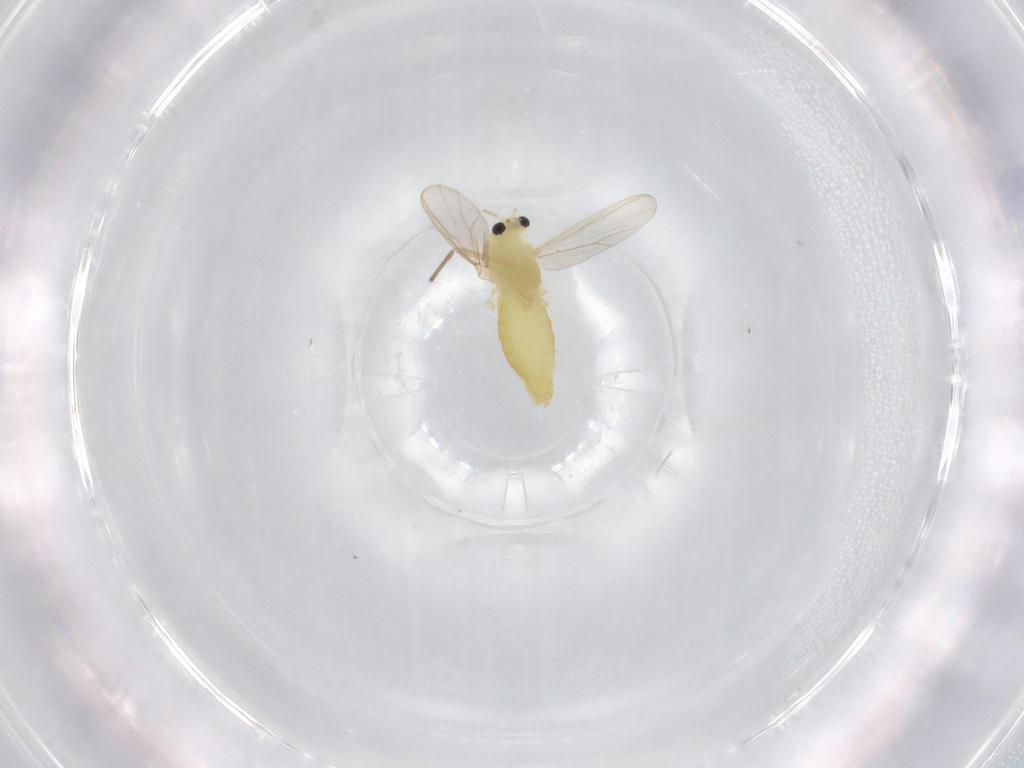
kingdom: Animalia
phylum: Arthropoda
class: Insecta
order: Diptera
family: Chironomidae
